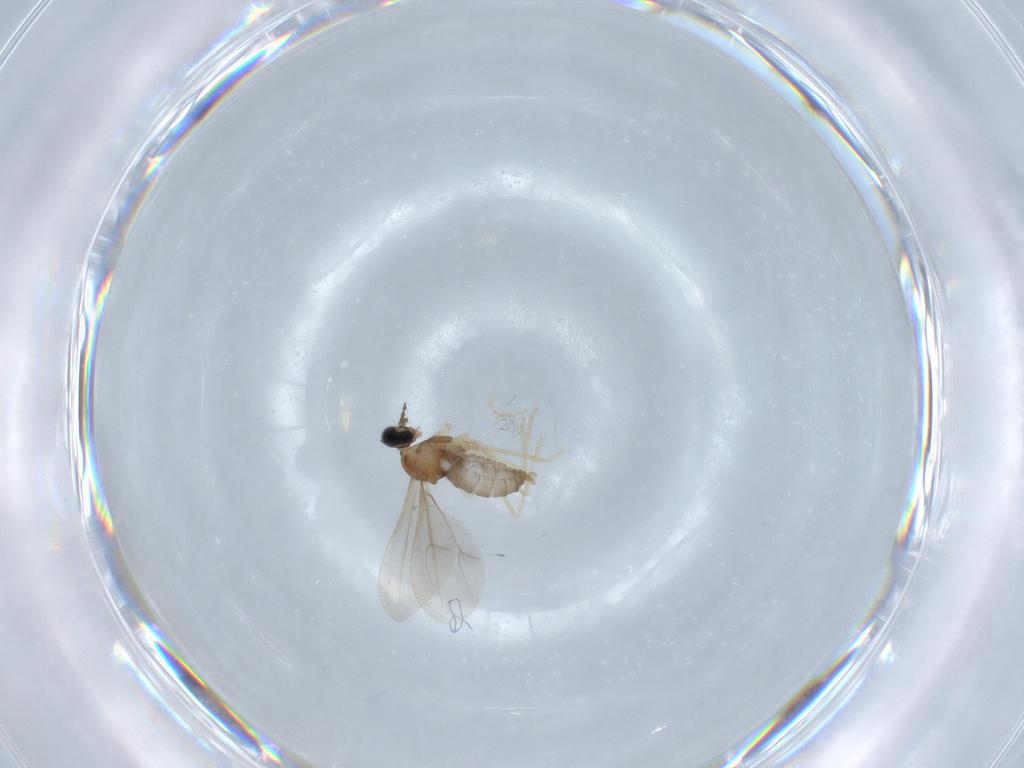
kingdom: Animalia
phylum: Arthropoda
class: Insecta
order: Diptera
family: Cecidomyiidae
